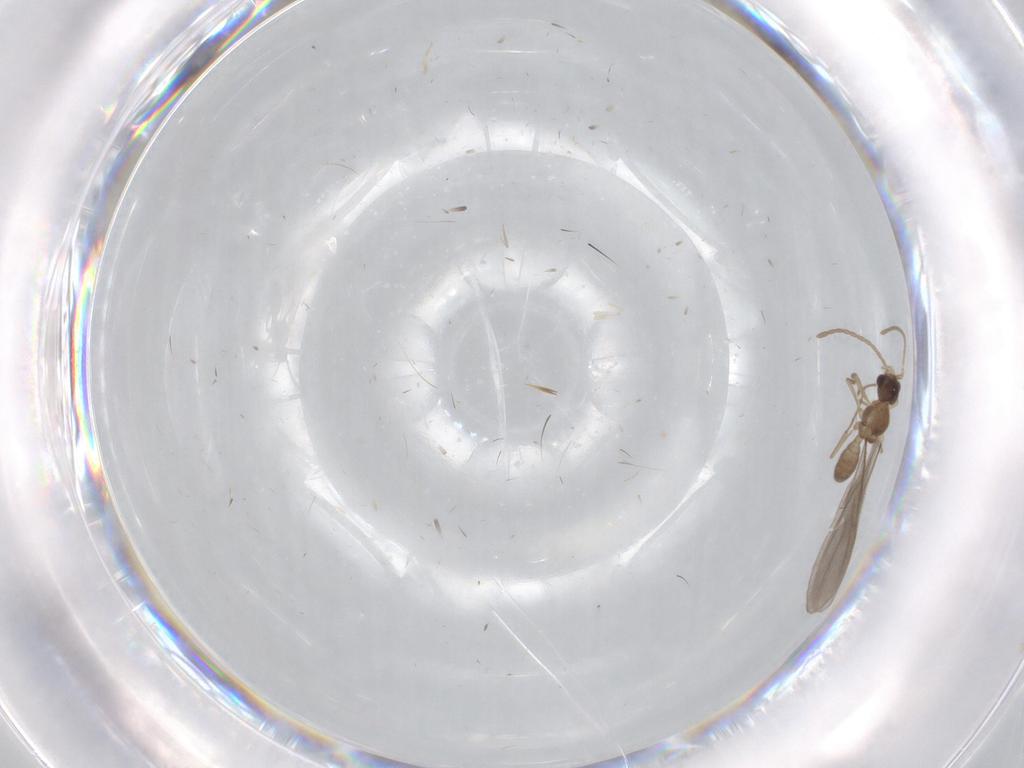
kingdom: Animalia
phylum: Arthropoda
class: Insecta
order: Hymenoptera
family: Formicidae
